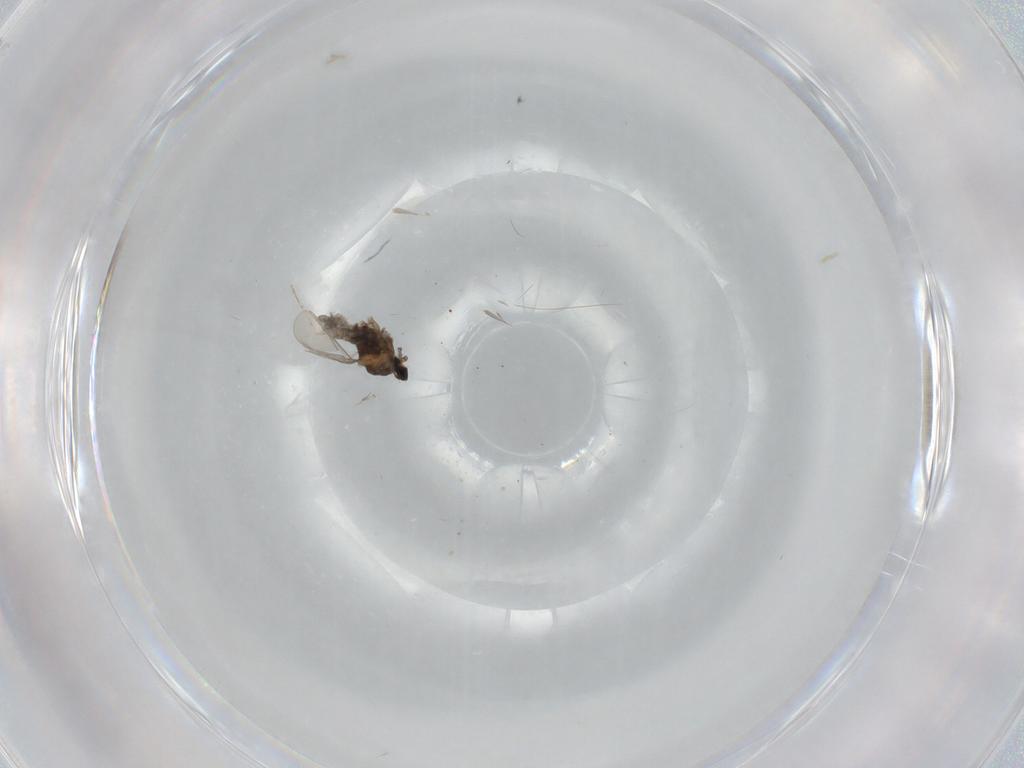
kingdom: Animalia
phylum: Arthropoda
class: Insecta
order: Diptera
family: Cecidomyiidae
